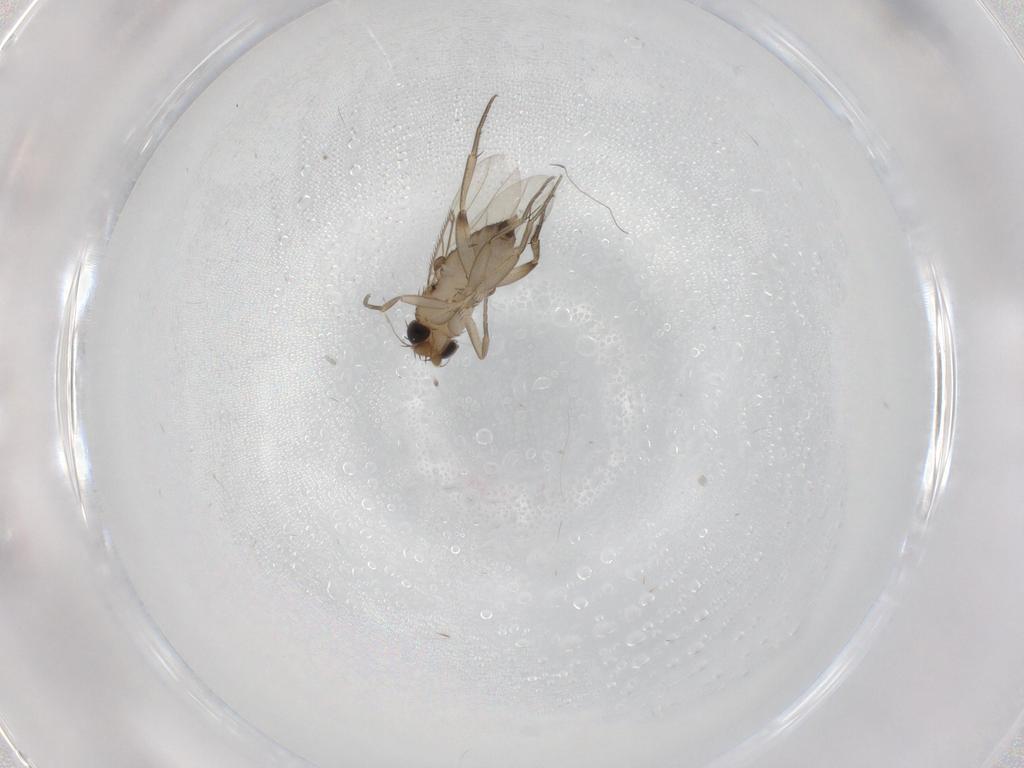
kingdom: Animalia
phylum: Arthropoda
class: Insecta
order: Diptera
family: Phoridae
